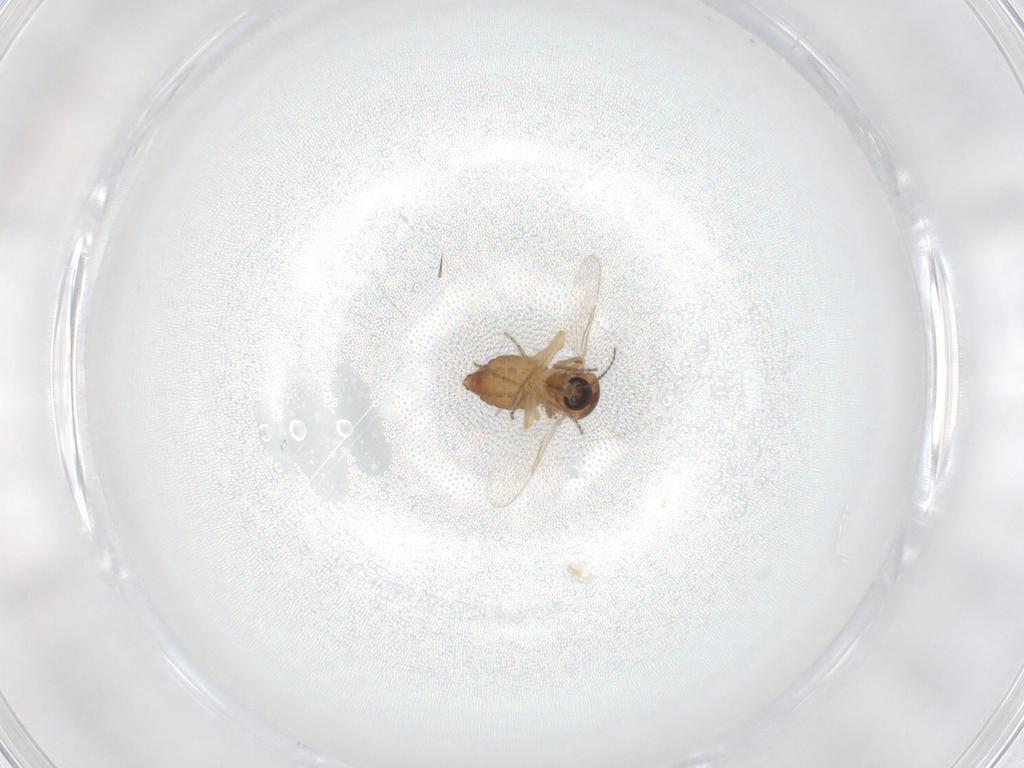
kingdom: Animalia
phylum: Arthropoda
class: Insecta
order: Diptera
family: Ceratopogonidae
